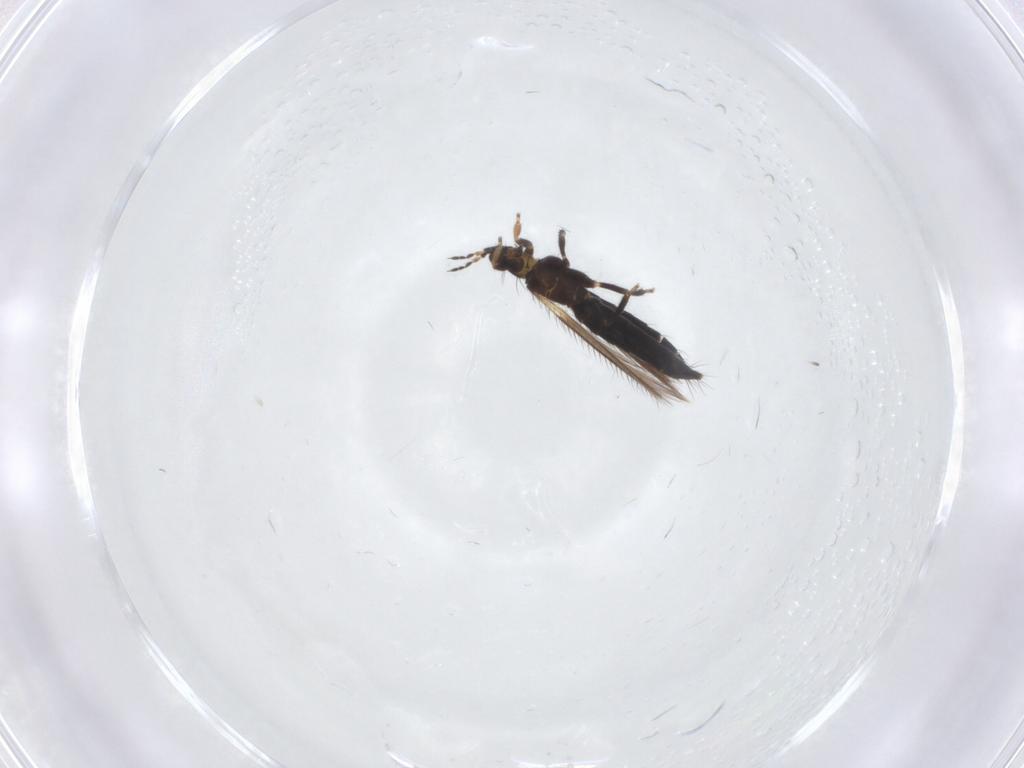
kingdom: Animalia
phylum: Arthropoda
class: Insecta
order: Thysanoptera
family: Thripidae
